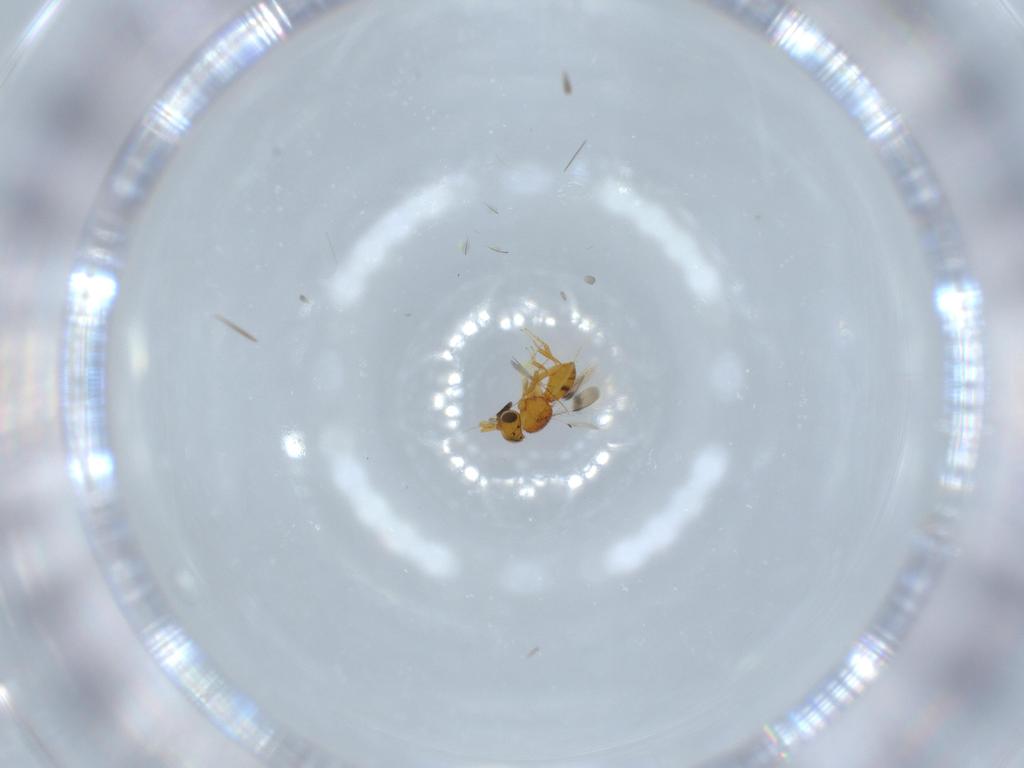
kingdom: Animalia
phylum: Arthropoda
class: Insecta
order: Hymenoptera
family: Scelionidae
